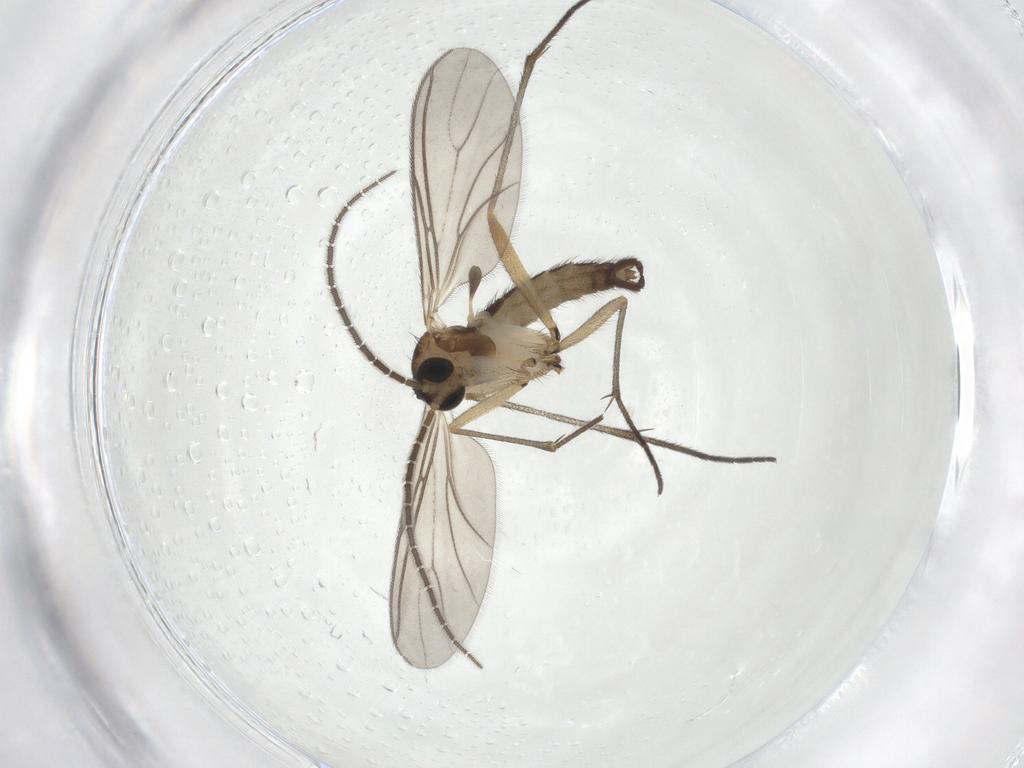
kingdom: Animalia
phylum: Arthropoda
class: Insecta
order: Diptera
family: Sciaridae
